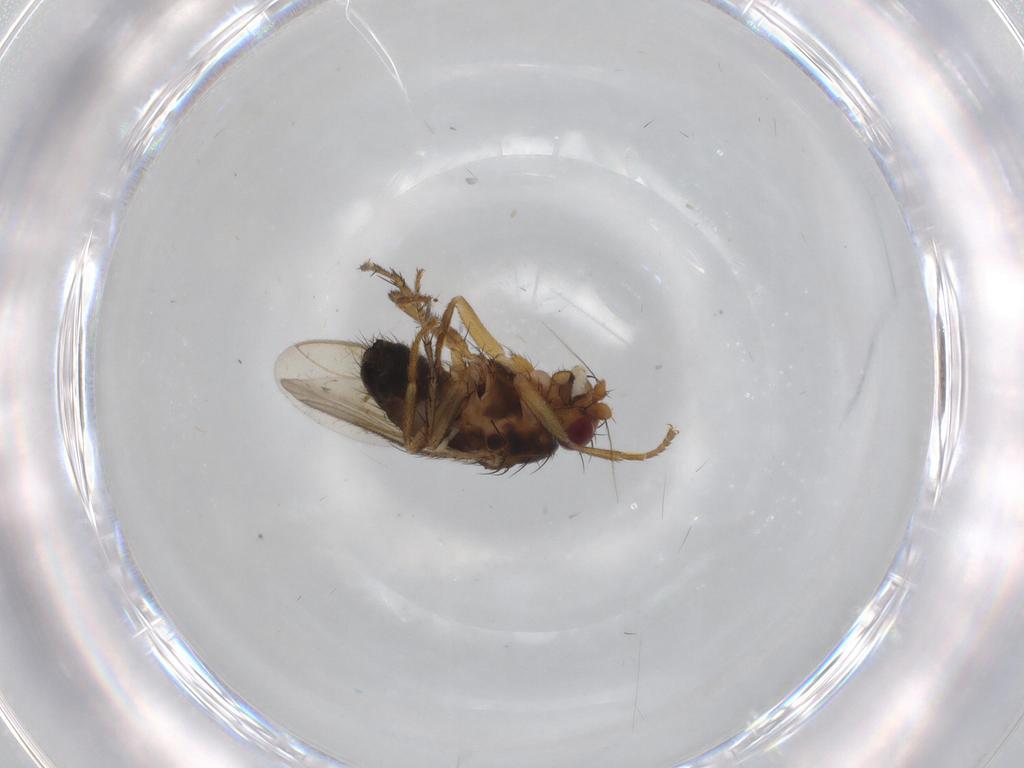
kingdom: Animalia
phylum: Arthropoda
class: Insecta
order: Diptera
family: Sphaeroceridae
